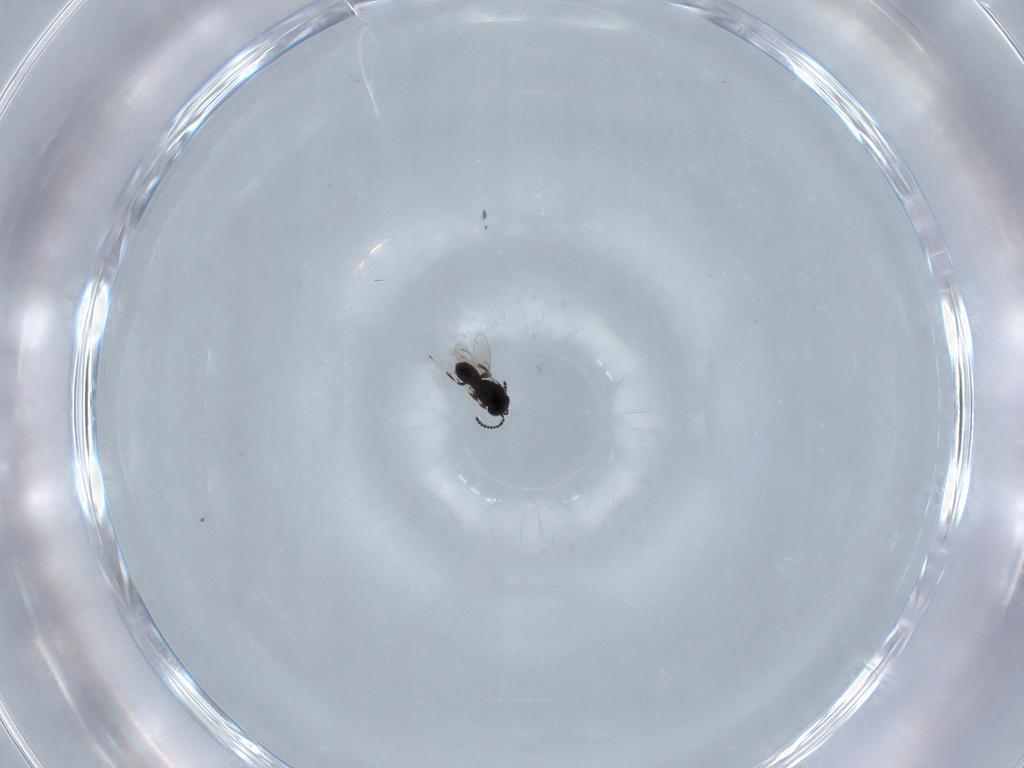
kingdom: Animalia
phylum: Arthropoda
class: Insecta
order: Hymenoptera
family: Scelionidae
